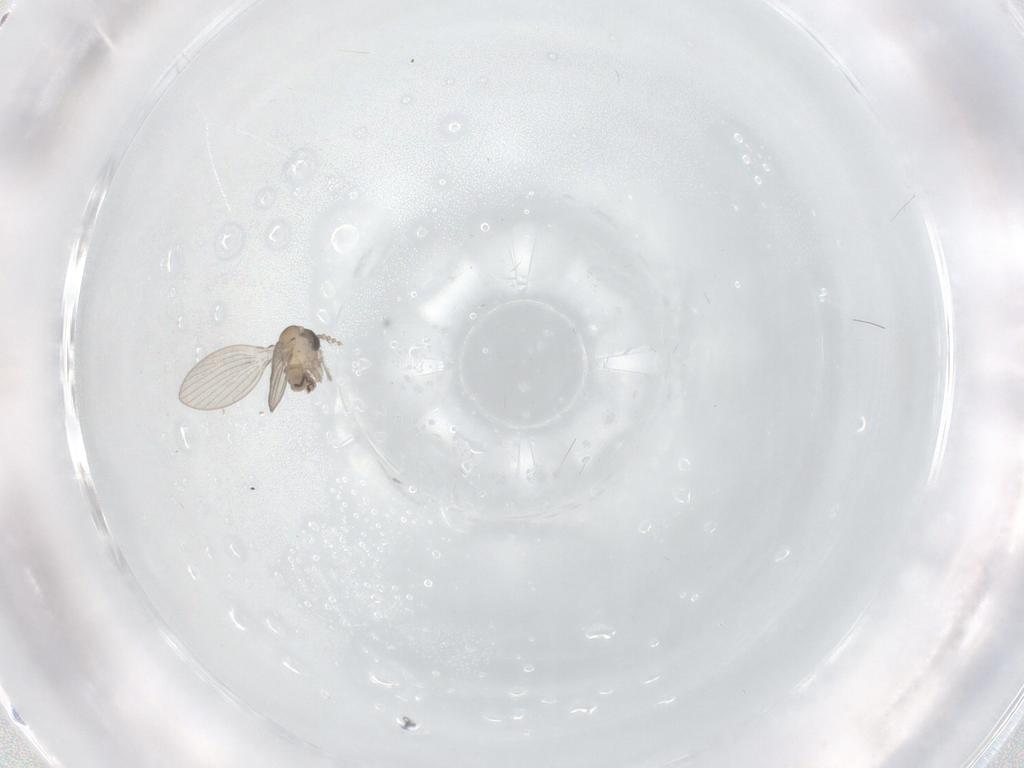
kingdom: Animalia
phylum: Arthropoda
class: Insecta
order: Diptera
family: Psychodidae
